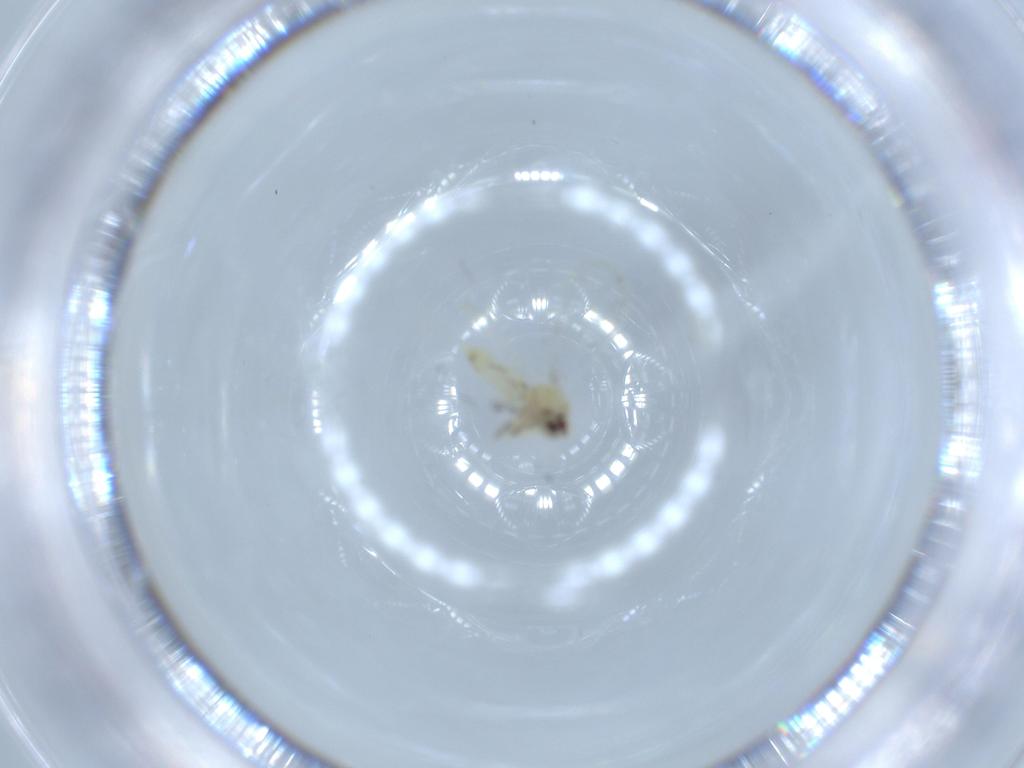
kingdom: Animalia
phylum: Arthropoda
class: Insecta
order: Hemiptera
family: Aleyrodidae
